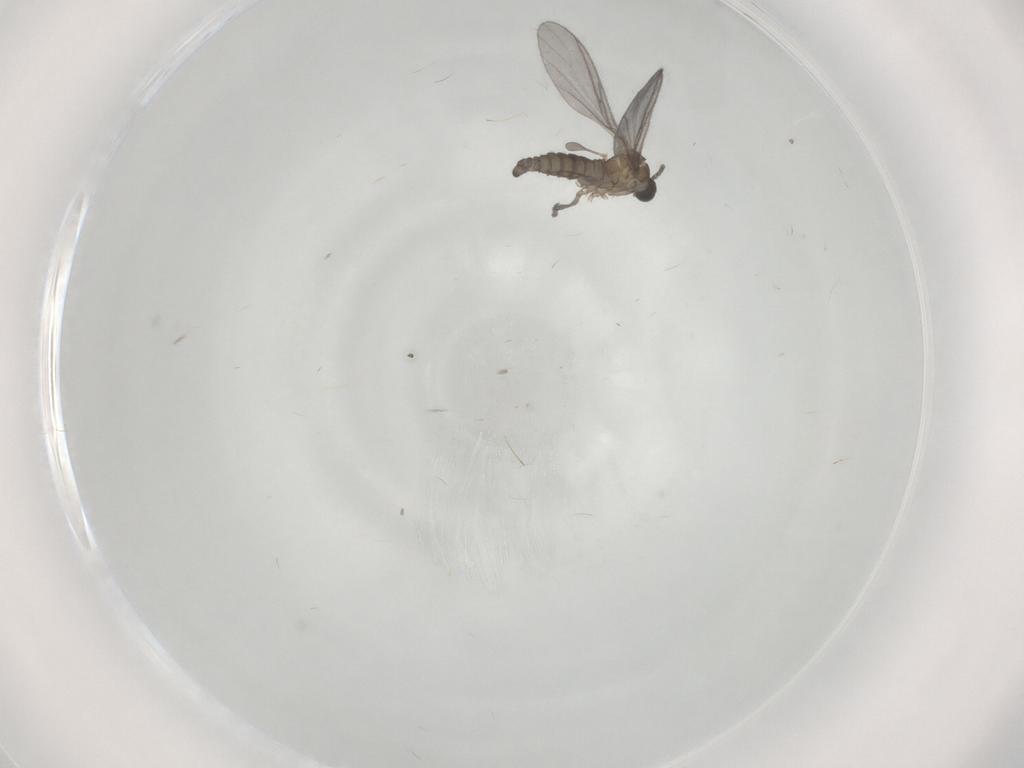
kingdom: Animalia
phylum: Arthropoda
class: Insecta
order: Diptera
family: Sciaridae
